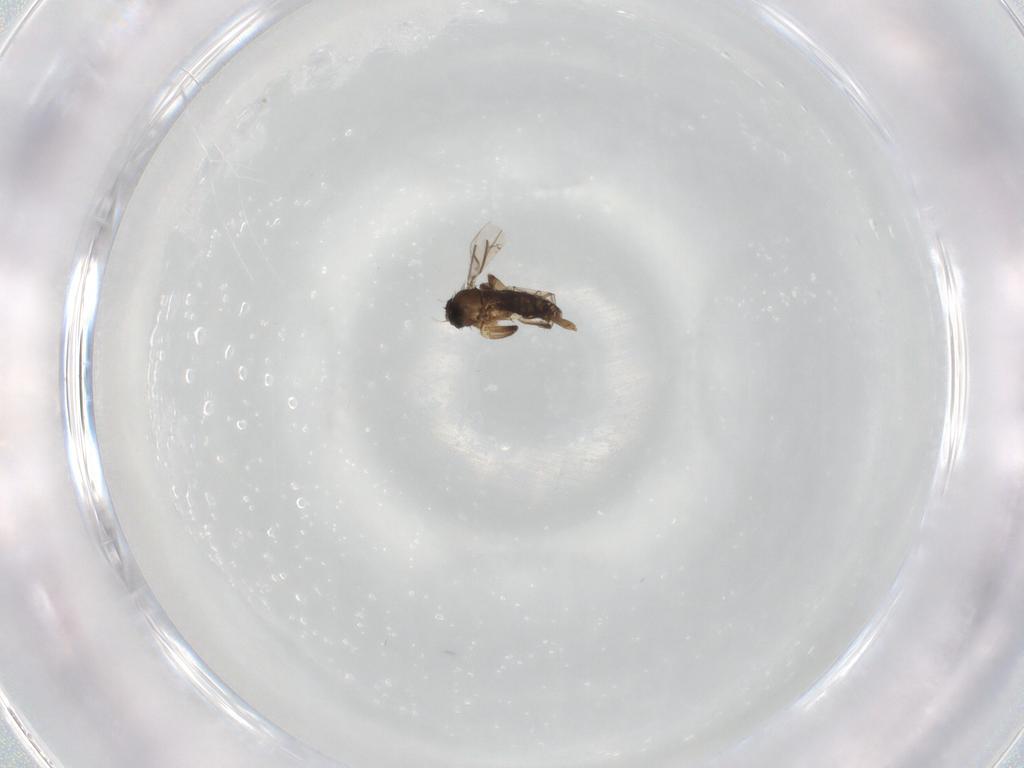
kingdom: Animalia
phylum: Arthropoda
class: Insecta
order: Diptera
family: Phoridae
